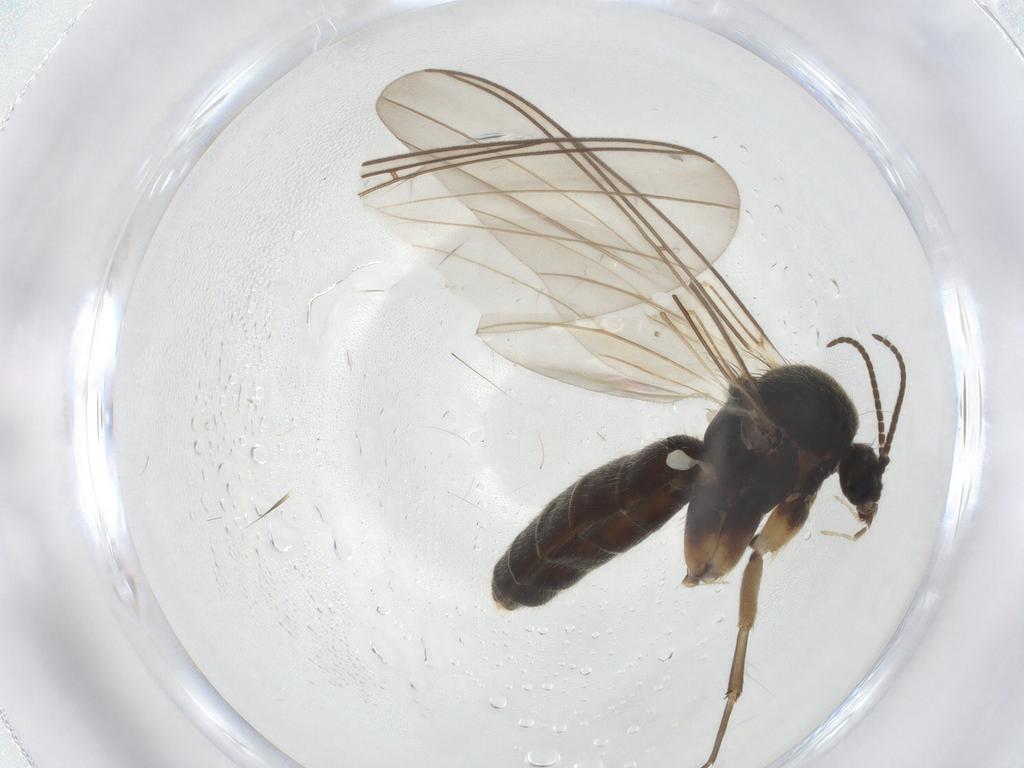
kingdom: Animalia
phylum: Arthropoda
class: Insecta
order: Diptera
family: Mycetophilidae
